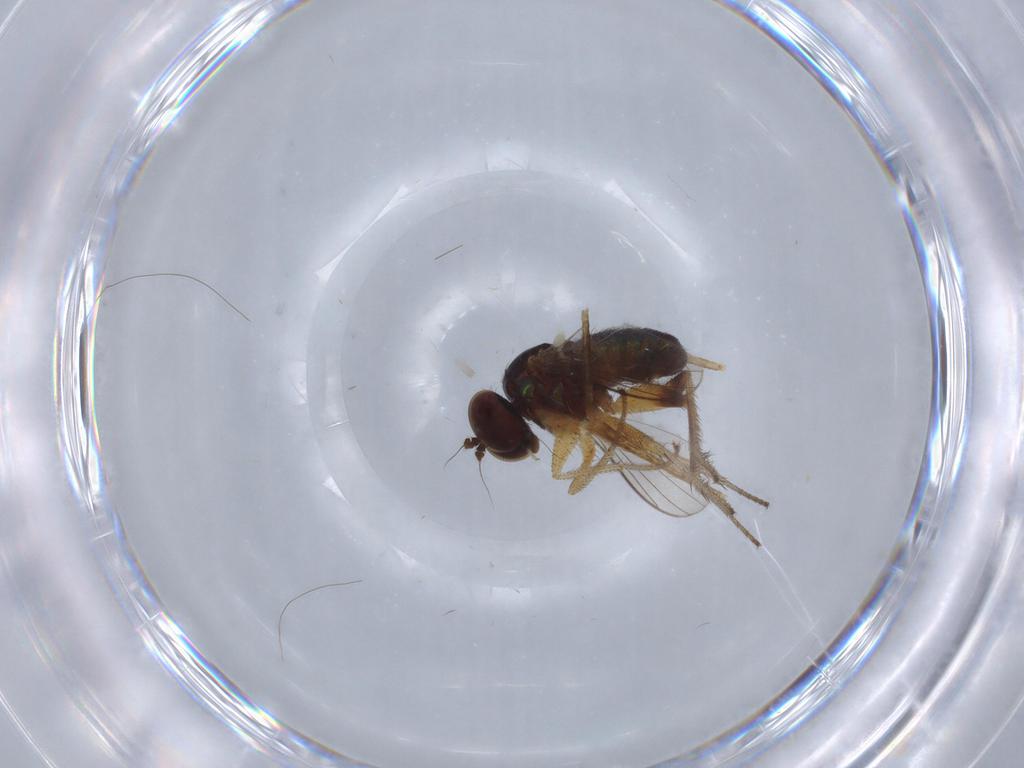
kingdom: Animalia
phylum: Arthropoda
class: Insecta
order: Diptera
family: Culicidae
